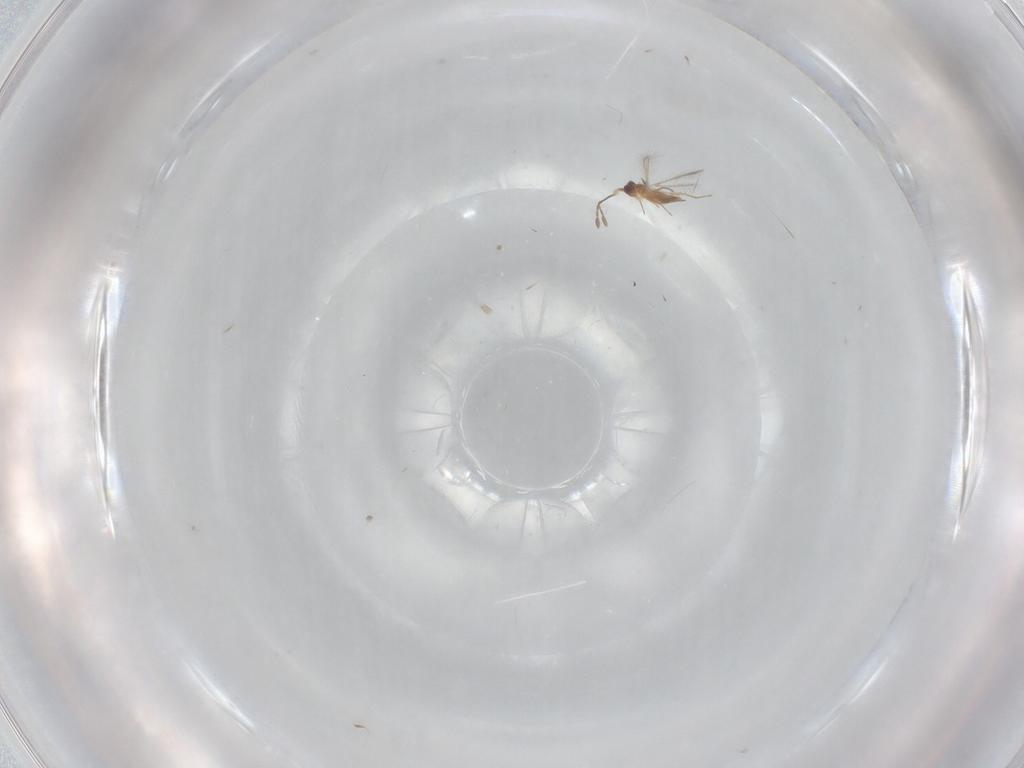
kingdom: Animalia
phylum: Arthropoda
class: Insecta
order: Hymenoptera
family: Mymaridae
